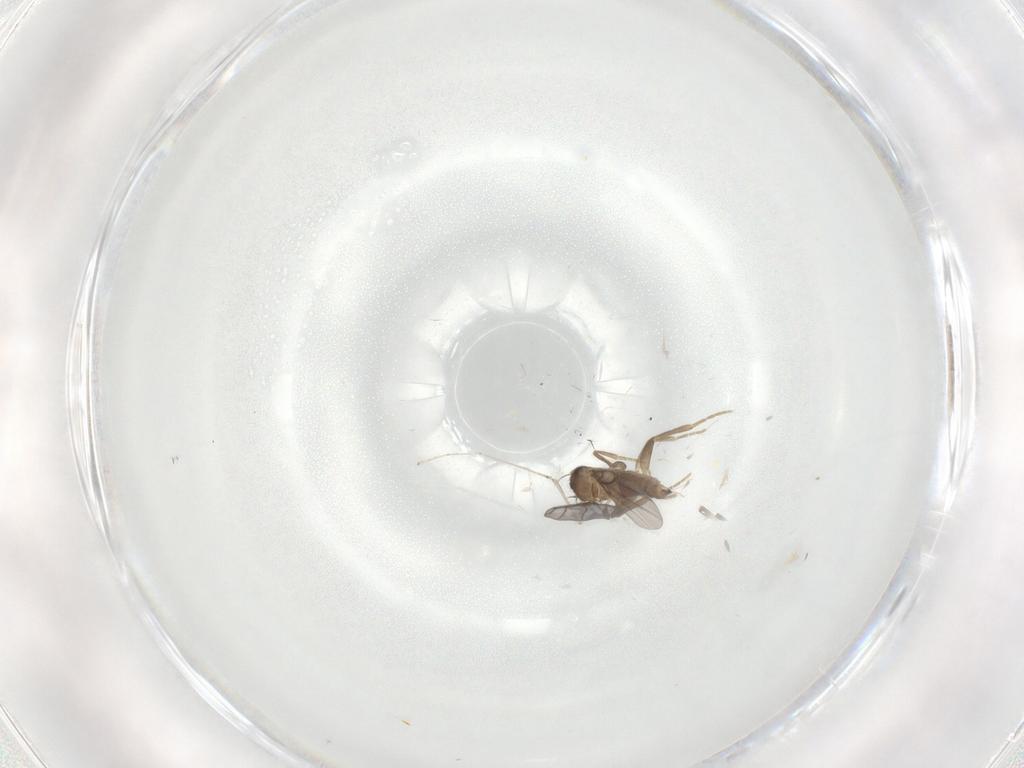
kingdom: Animalia
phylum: Arthropoda
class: Insecta
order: Diptera
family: Cecidomyiidae
